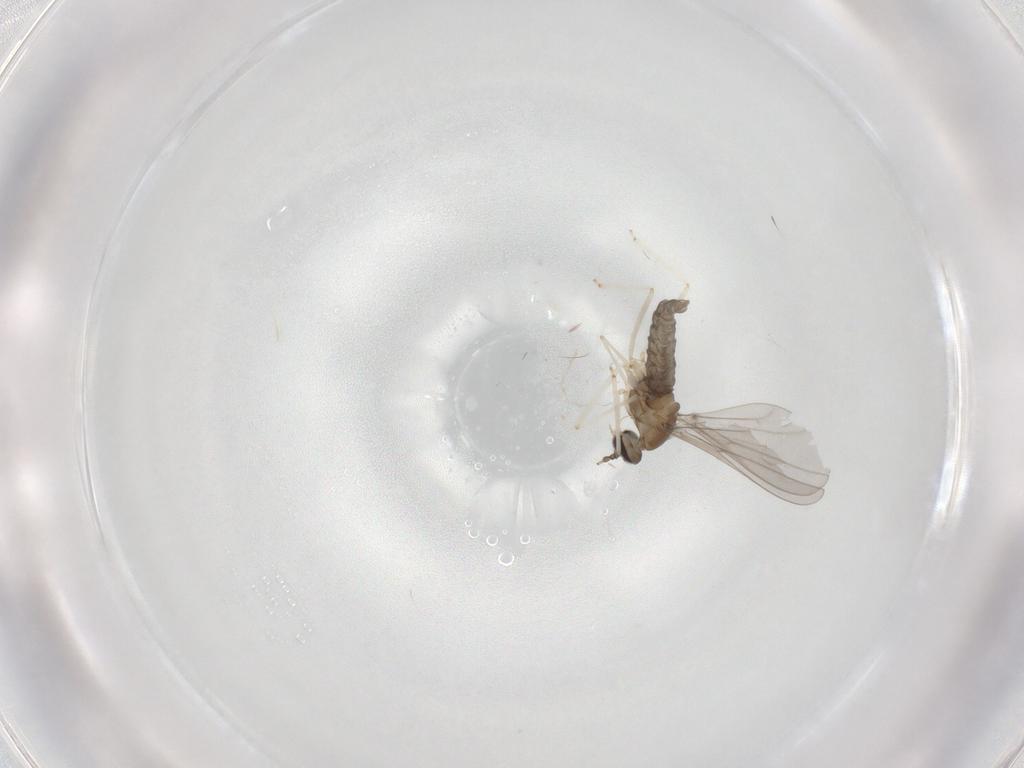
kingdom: Animalia
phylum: Arthropoda
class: Insecta
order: Diptera
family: Cecidomyiidae
